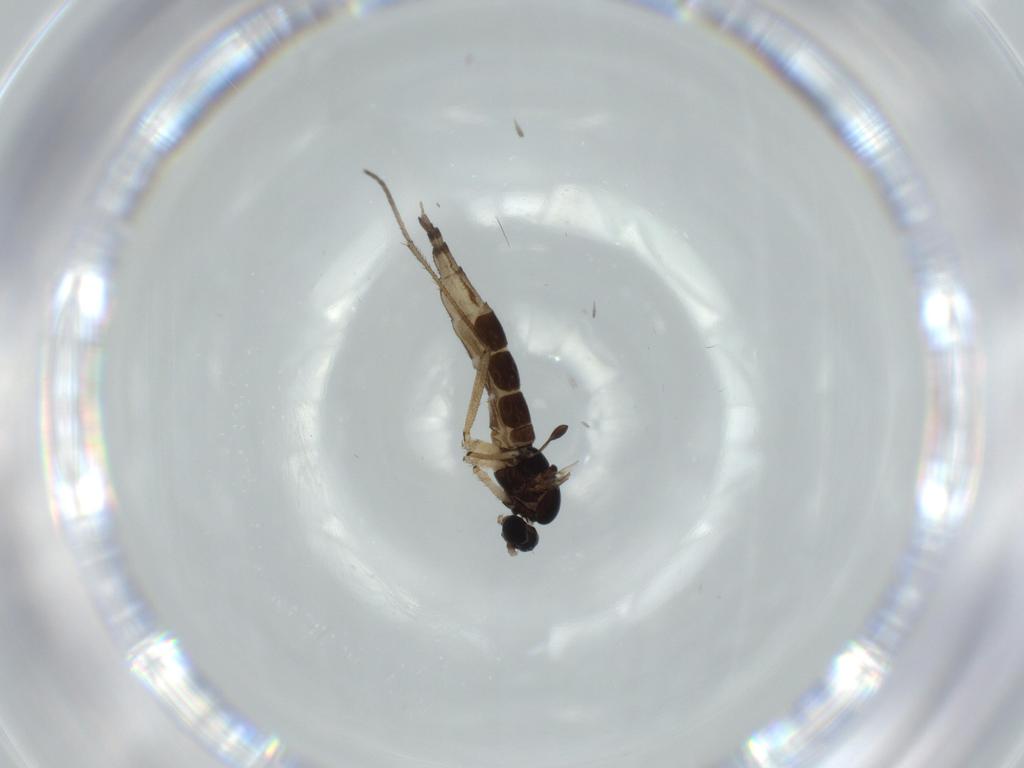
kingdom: Animalia
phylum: Arthropoda
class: Insecta
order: Diptera
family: Sciaridae
